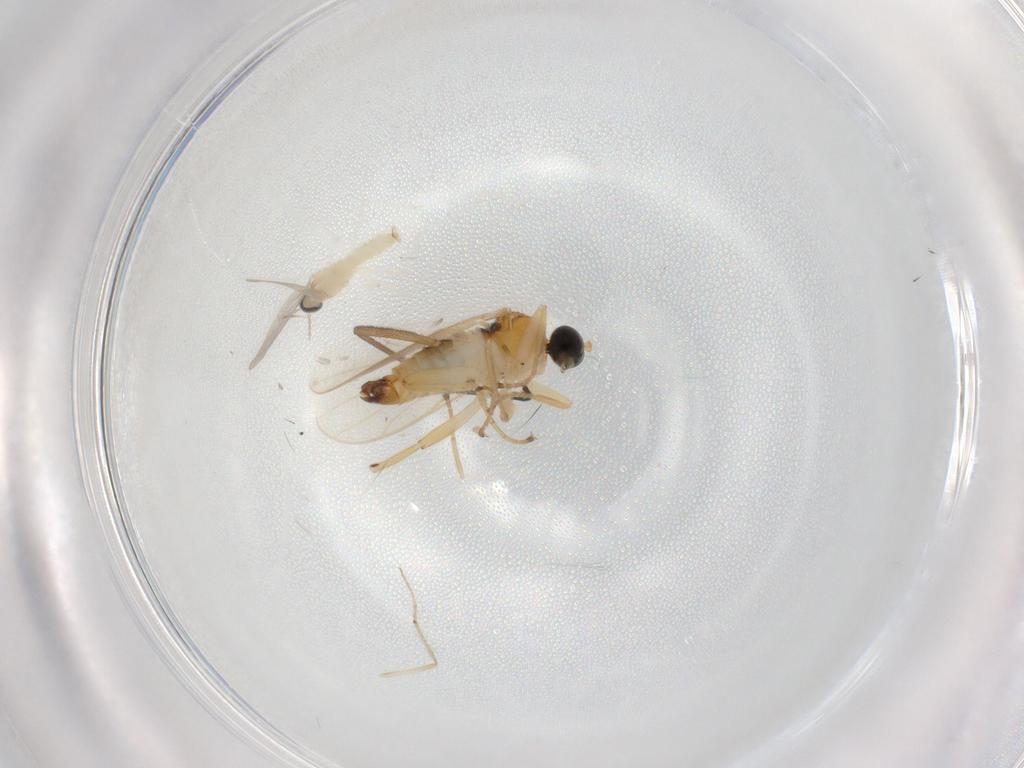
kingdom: Animalia
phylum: Arthropoda
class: Insecta
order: Diptera
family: Hybotidae
